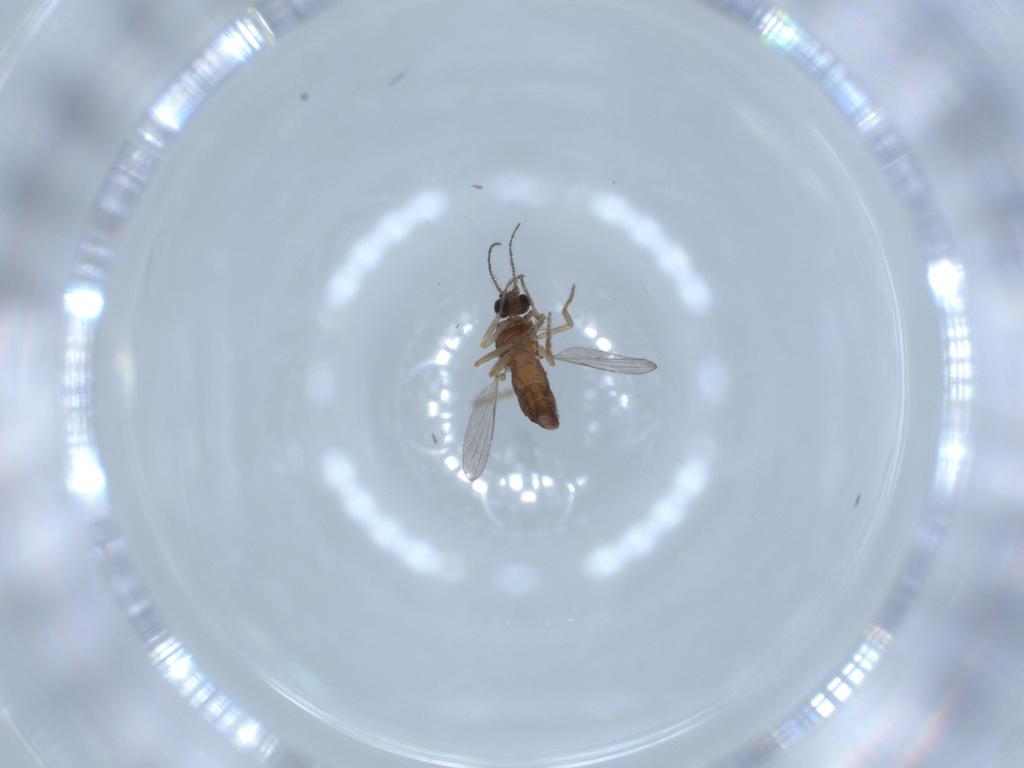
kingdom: Animalia
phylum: Arthropoda
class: Insecta
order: Diptera
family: Ceratopogonidae
